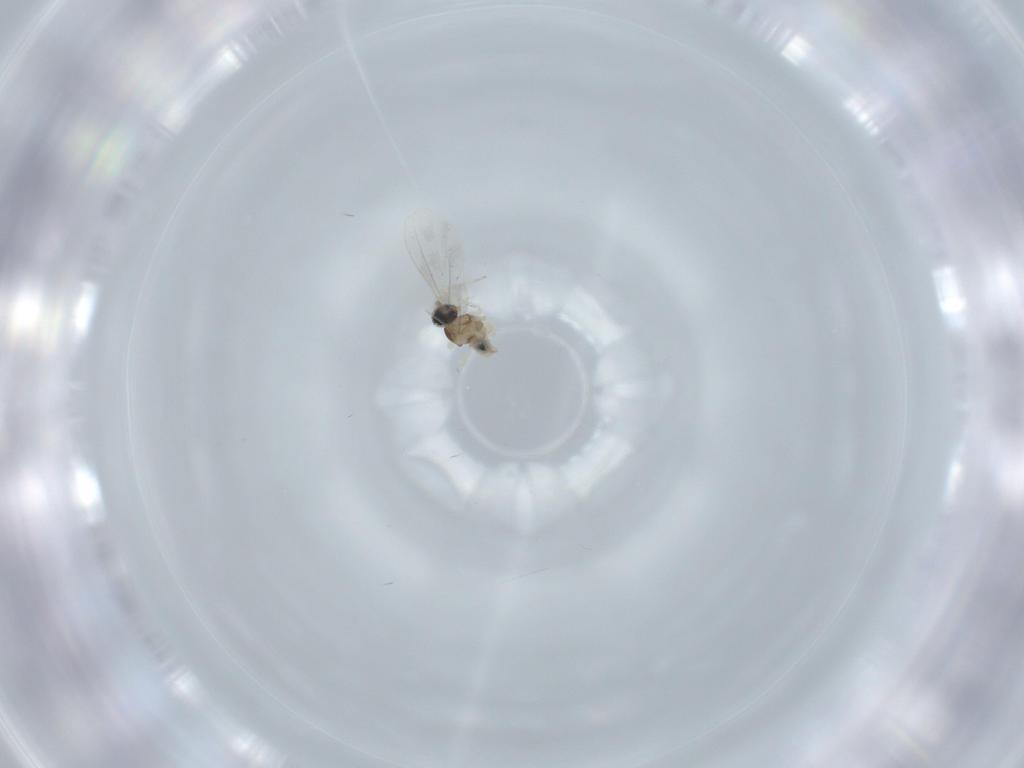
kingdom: Animalia
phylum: Arthropoda
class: Insecta
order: Diptera
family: Cecidomyiidae
